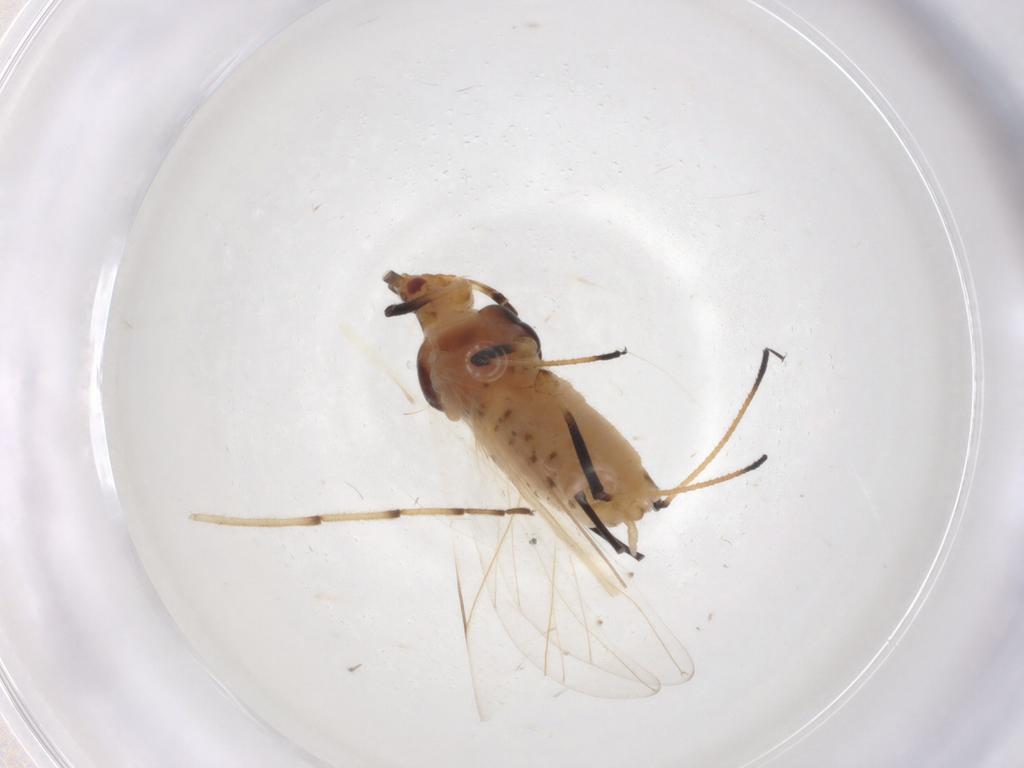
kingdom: Animalia
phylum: Arthropoda
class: Insecta
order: Hemiptera
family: Aphididae
